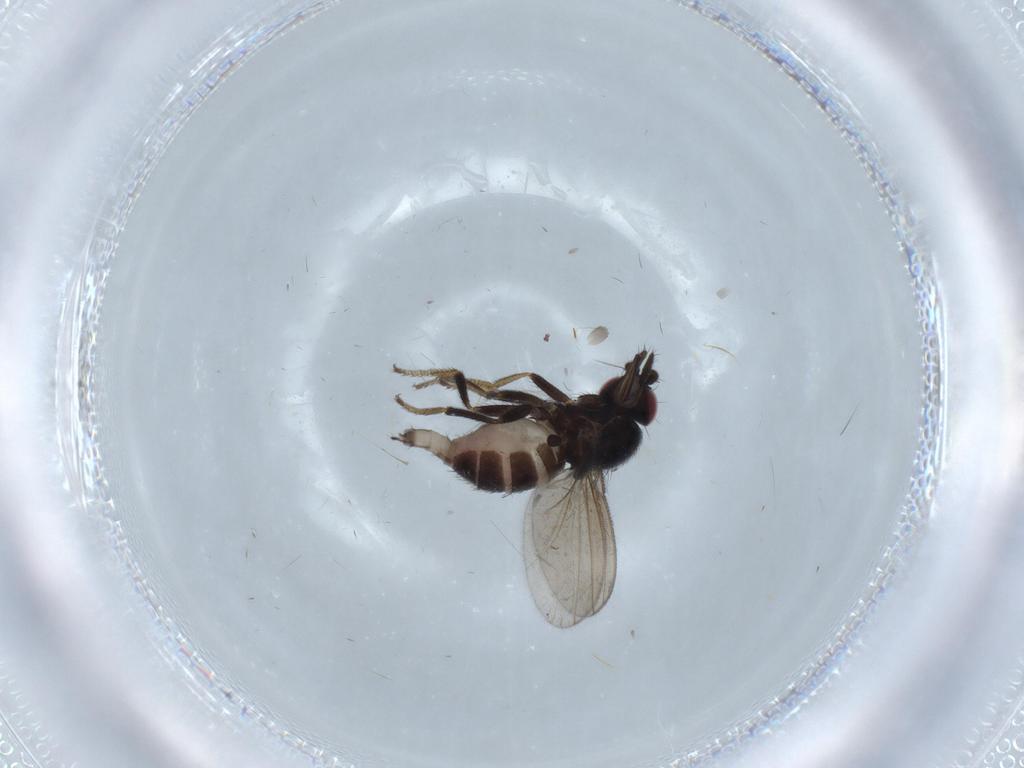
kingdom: Animalia
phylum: Arthropoda
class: Insecta
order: Diptera
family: Milichiidae
